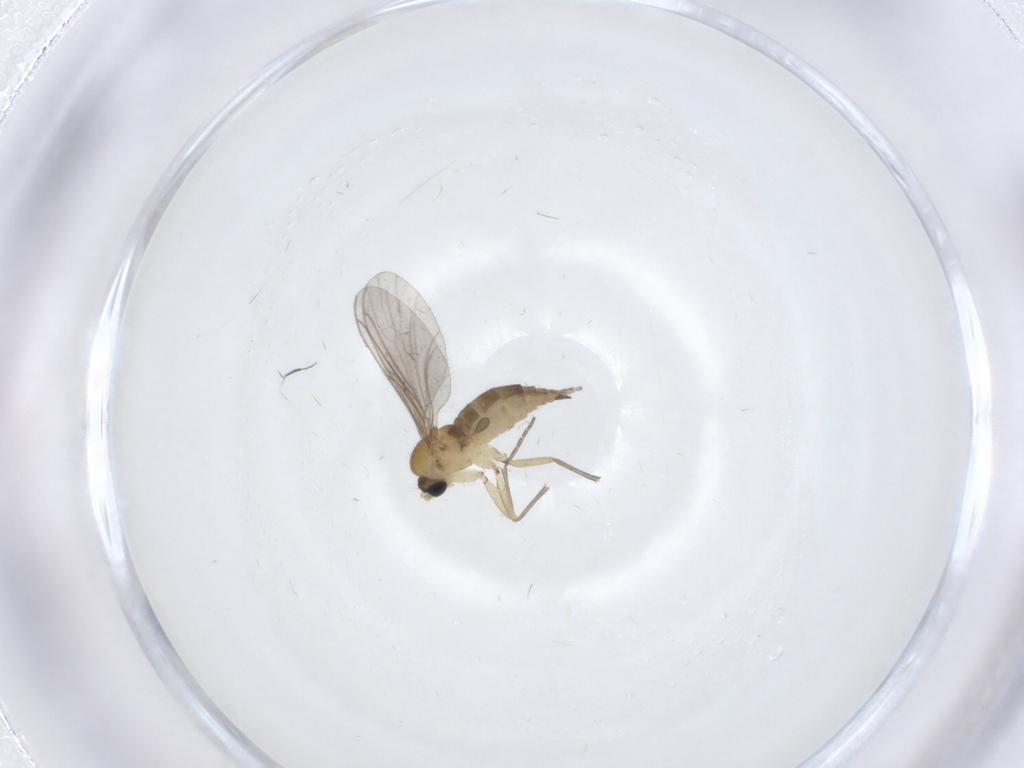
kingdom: Animalia
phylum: Arthropoda
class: Insecta
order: Diptera
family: Sciaridae
